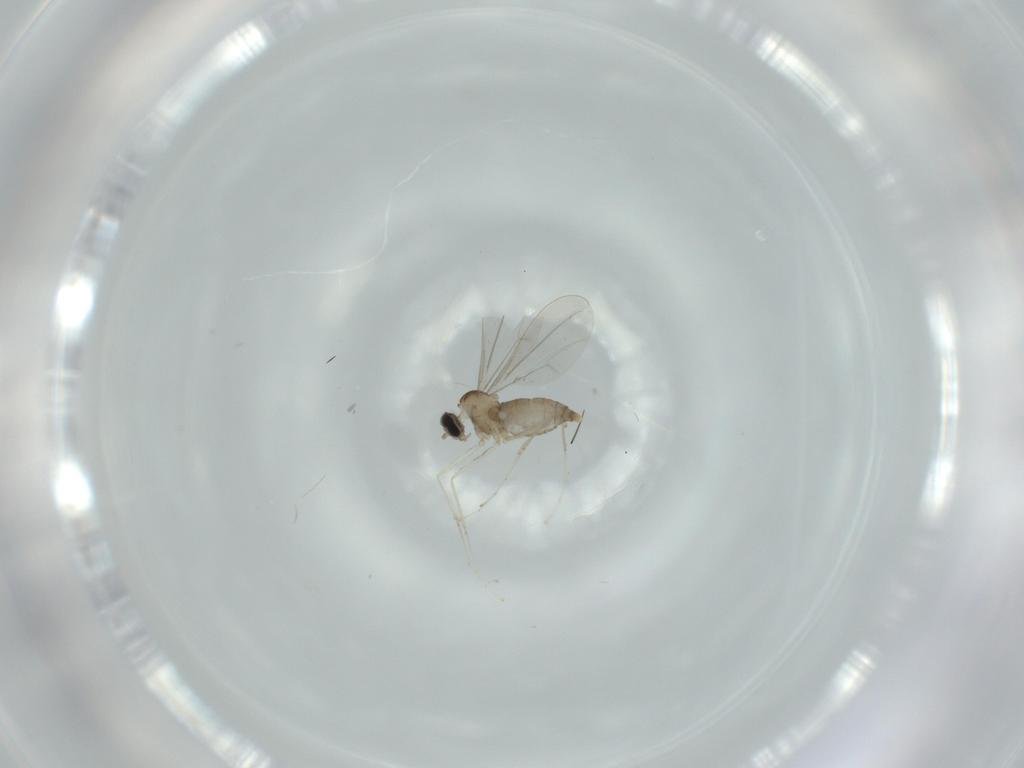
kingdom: Animalia
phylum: Arthropoda
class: Insecta
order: Diptera
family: Cecidomyiidae
